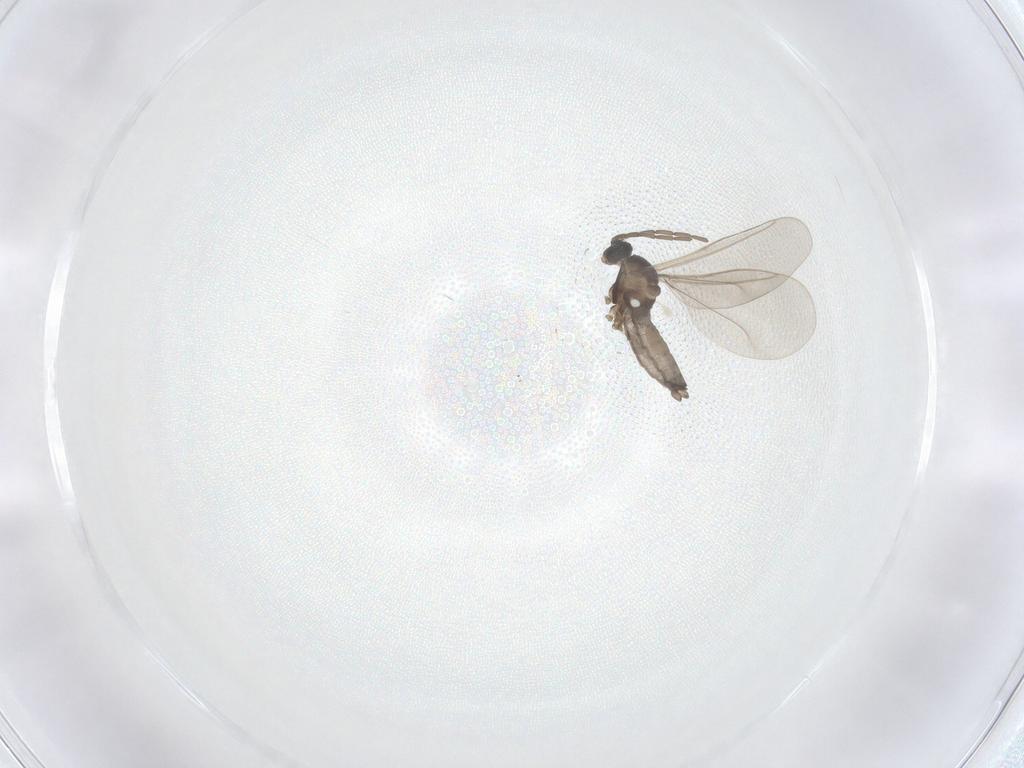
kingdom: Animalia
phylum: Arthropoda
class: Insecta
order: Diptera
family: Cecidomyiidae
